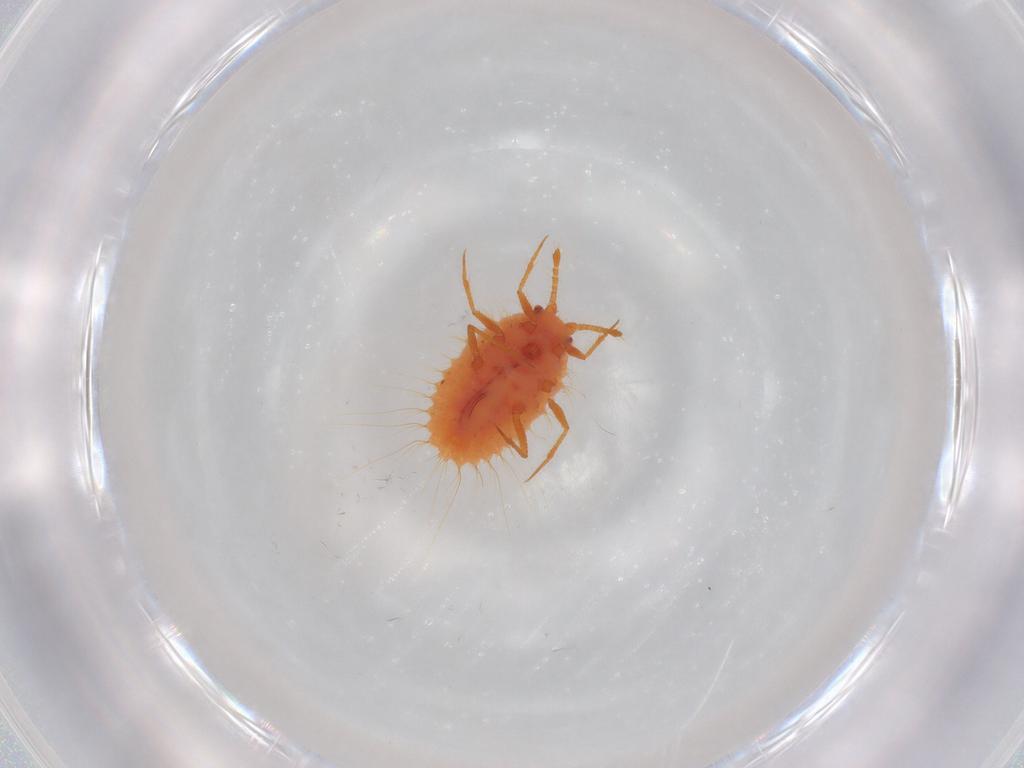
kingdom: Animalia
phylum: Arthropoda
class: Insecta
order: Hemiptera
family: Coccoidea_incertae_sedis
